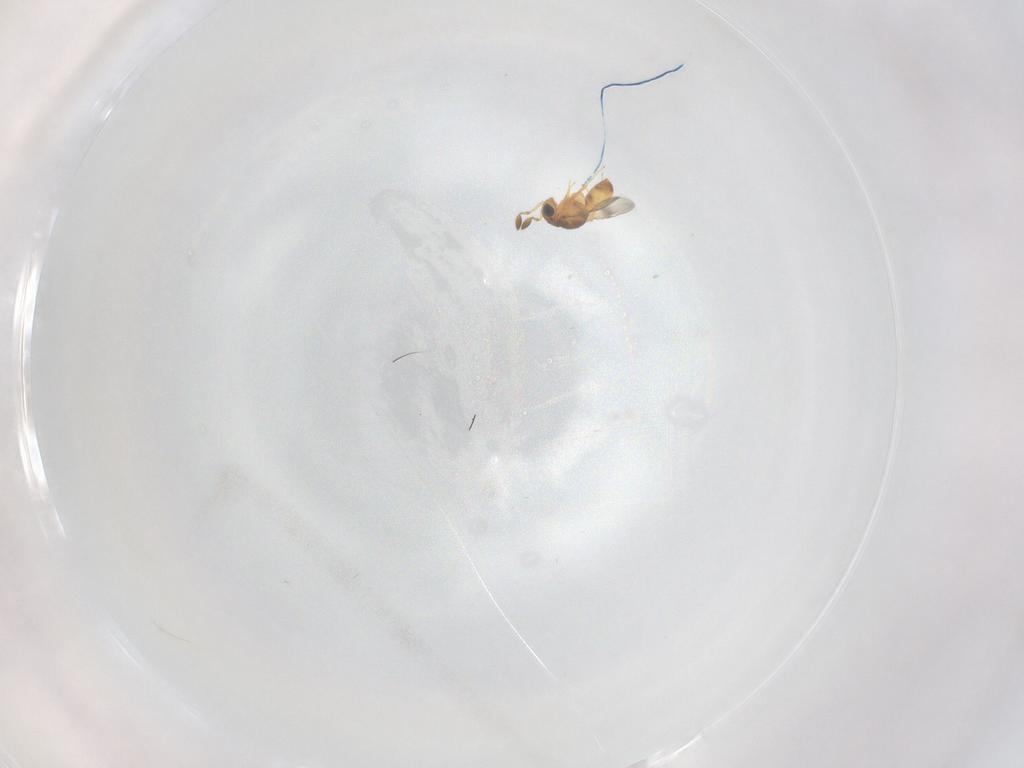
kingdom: Animalia
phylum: Arthropoda
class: Insecta
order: Hymenoptera
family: Scelionidae
